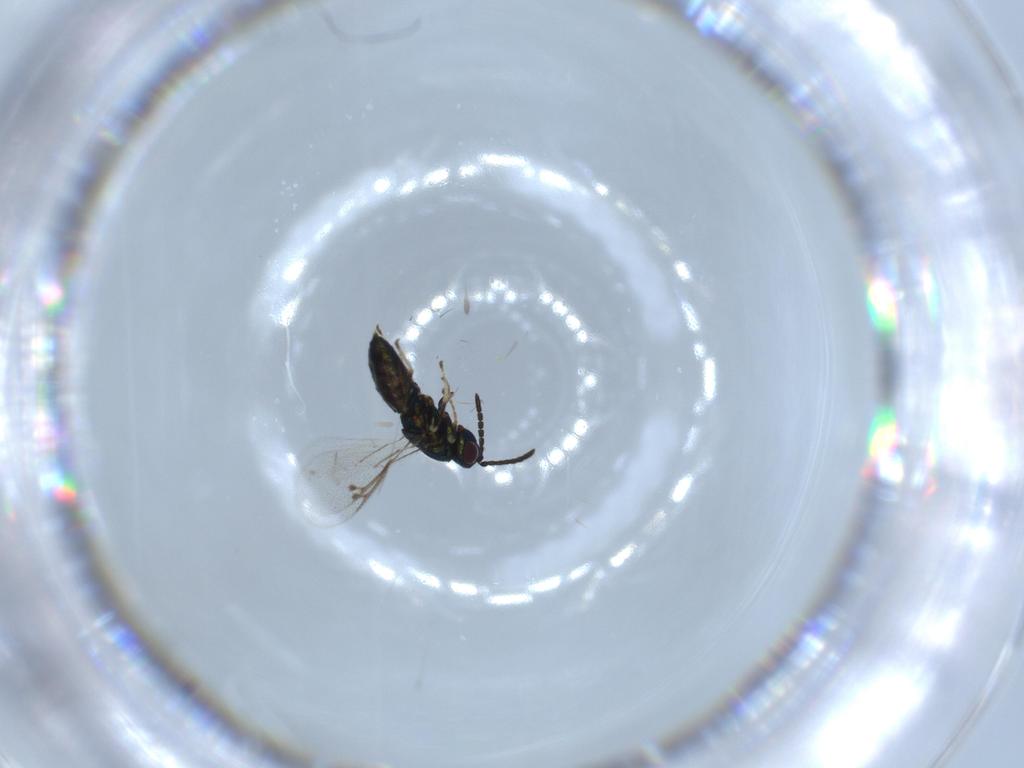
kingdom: Animalia
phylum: Arthropoda
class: Insecta
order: Hymenoptera
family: Pteromalidae
